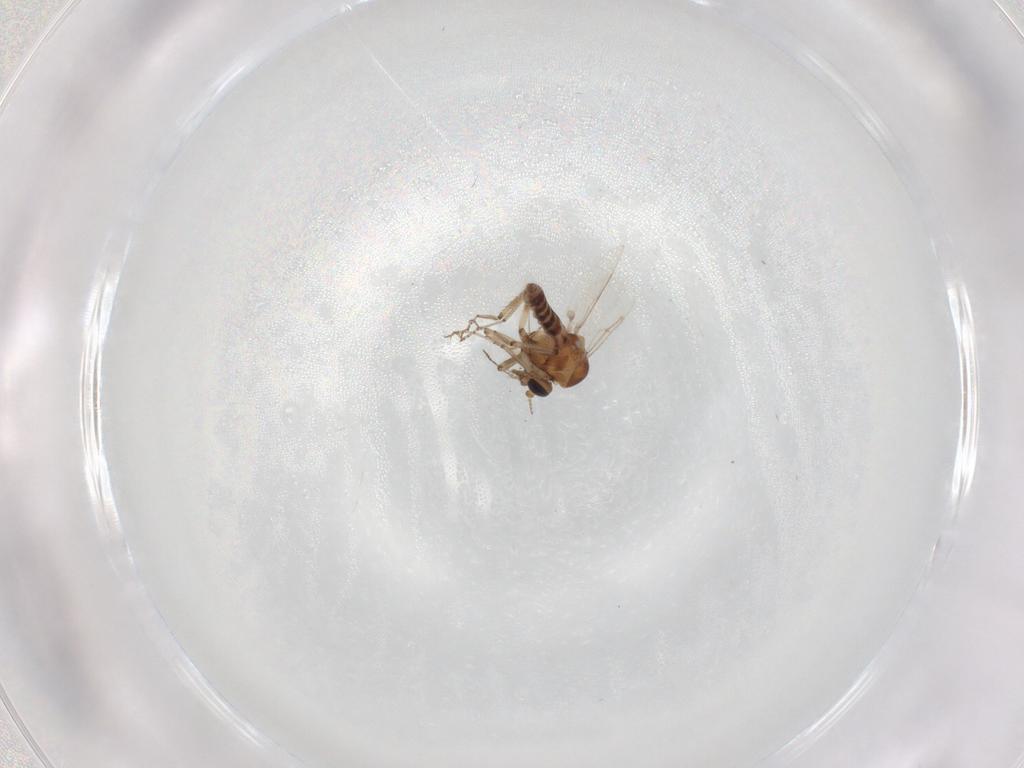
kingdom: Animalia
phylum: Arthropoda
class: Insecta
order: Diptera
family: Ceratopogonidae
